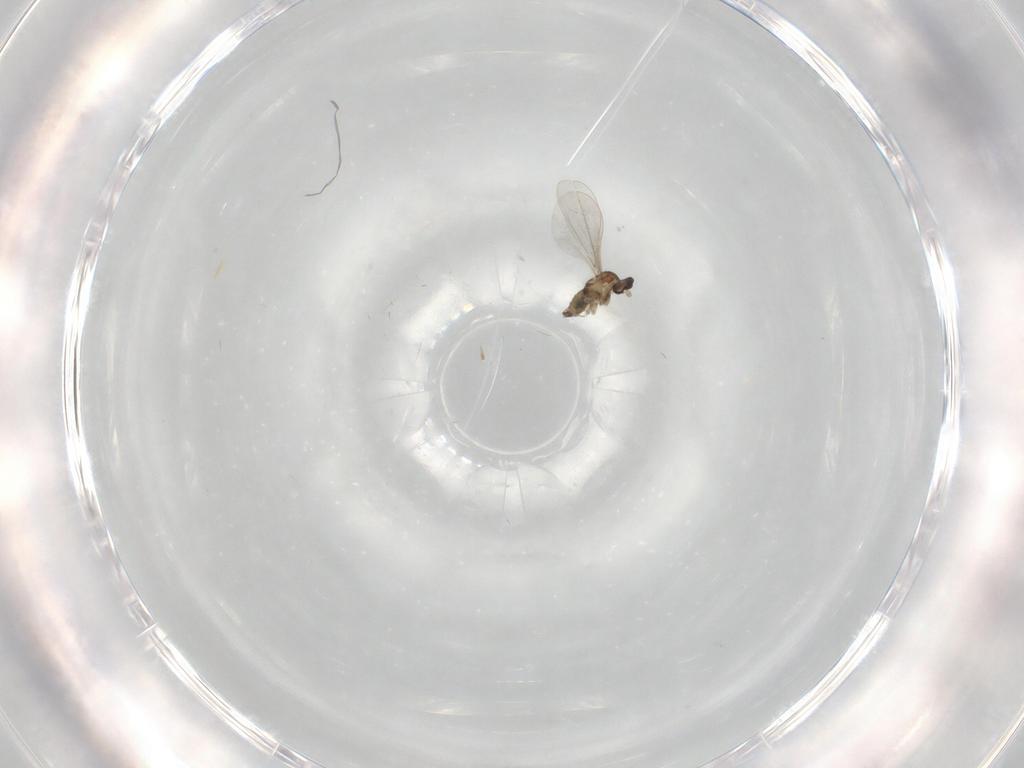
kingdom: Animalia
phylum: Arthropoda
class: Insecta
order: Diptera
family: Cecidomyiidae
